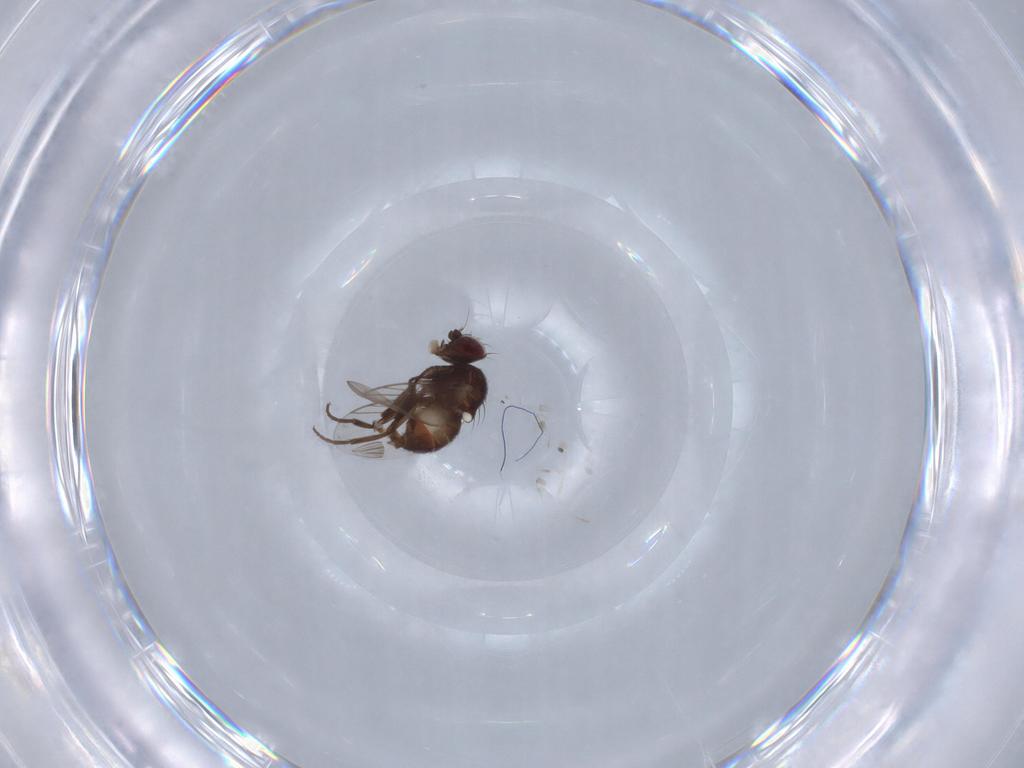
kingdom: Animalia
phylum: Arthropoda
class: Insecta
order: Diptera
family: Ceratopogonidae
